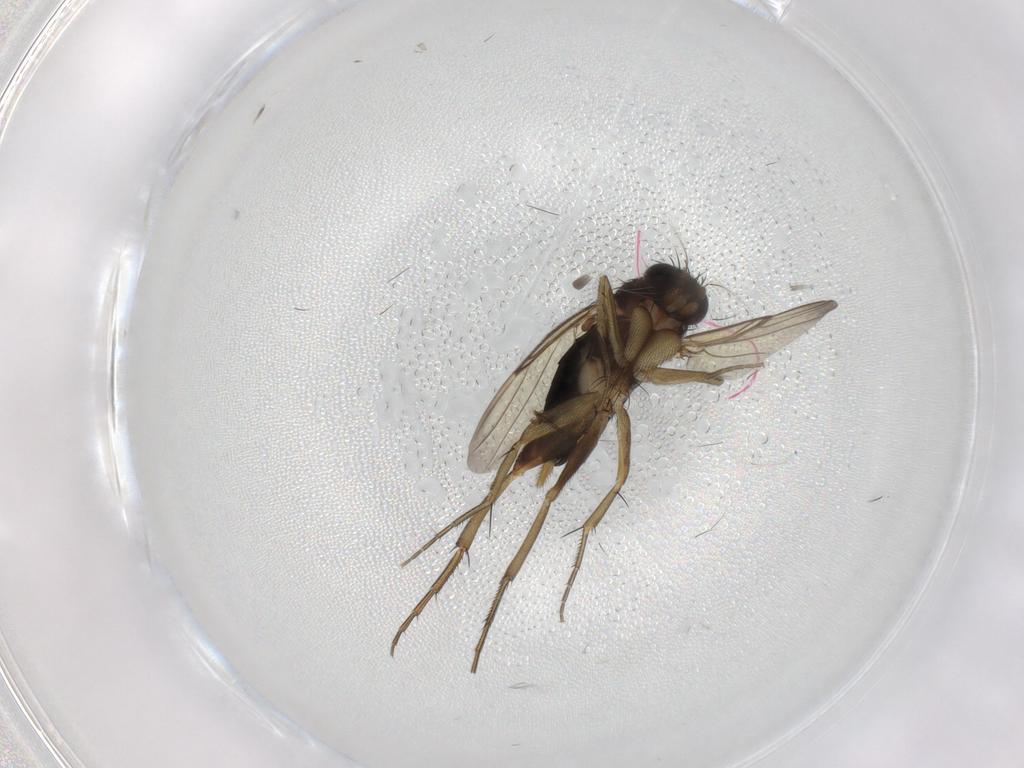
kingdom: Animalia
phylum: Arthropoda
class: Insecta
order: Diptera
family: Phoridae
